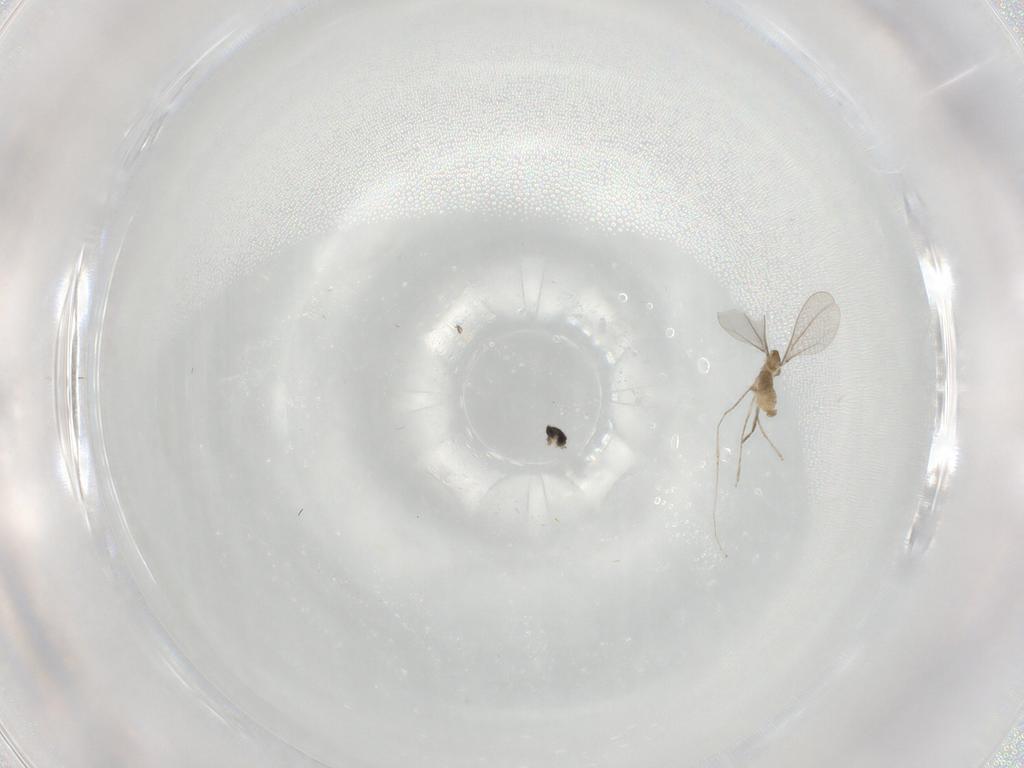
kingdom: Animalia
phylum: Arthropoda
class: Insecta
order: Diptera
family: Cecidomyiidae
